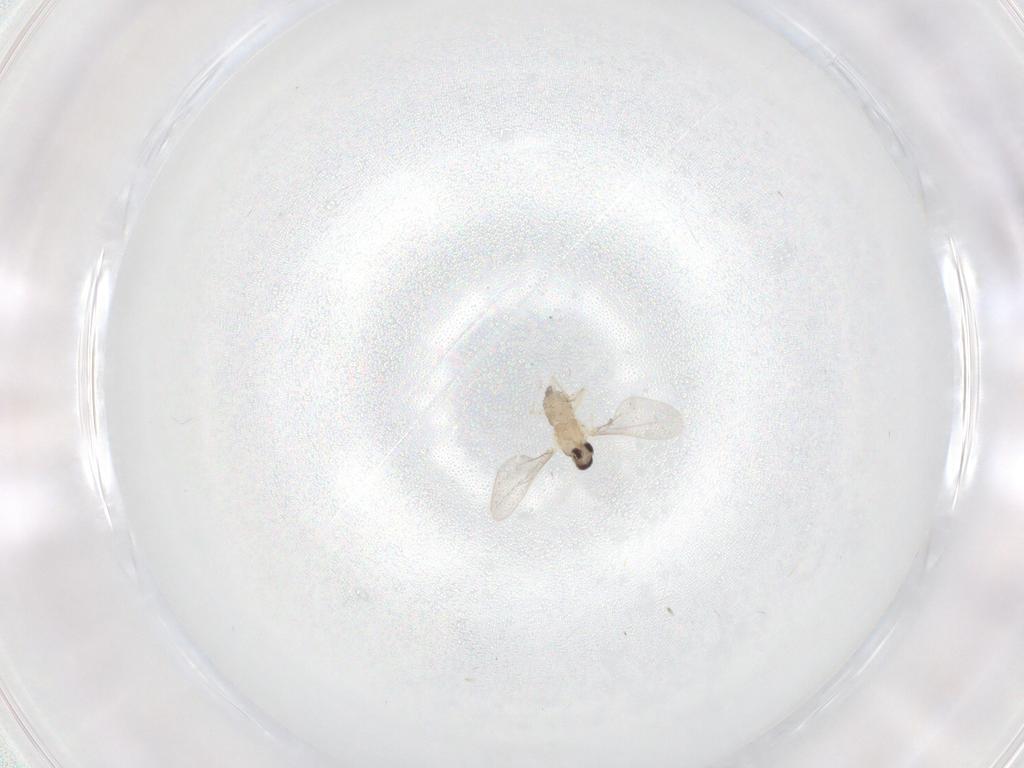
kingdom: Animalia
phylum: Arthropoda
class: Insecta
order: Diptera
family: Cecidomyiidae
